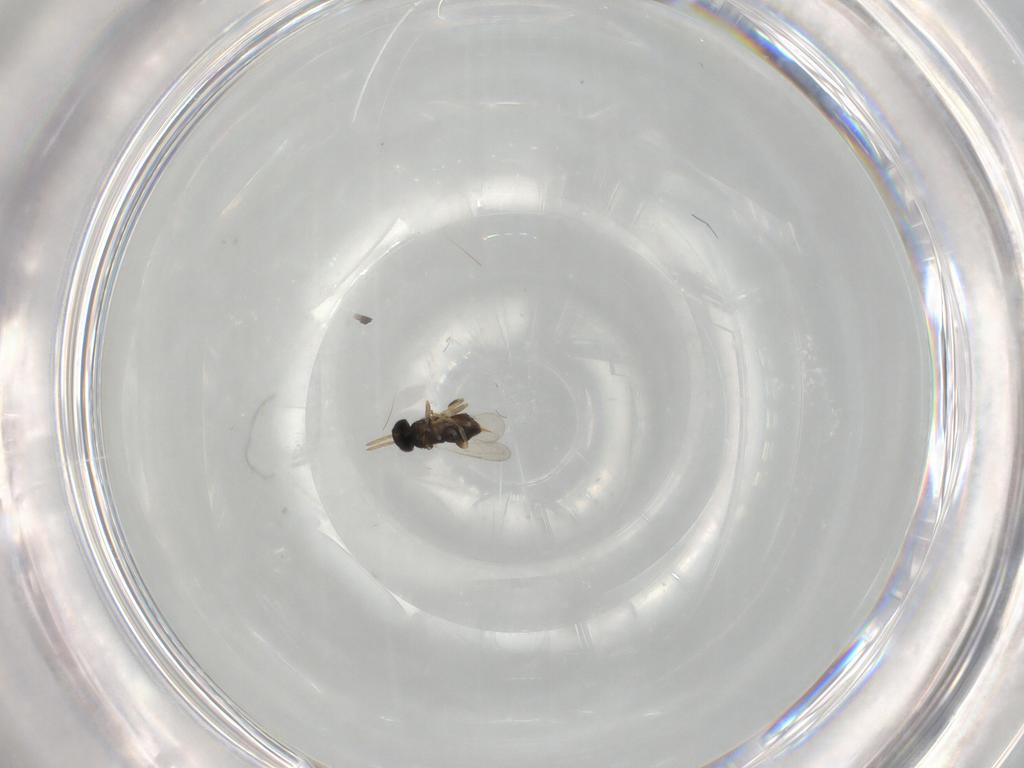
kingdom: Animalia
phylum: Arthropoda
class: Insecta
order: Hymenoptera
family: Aphelinidae
